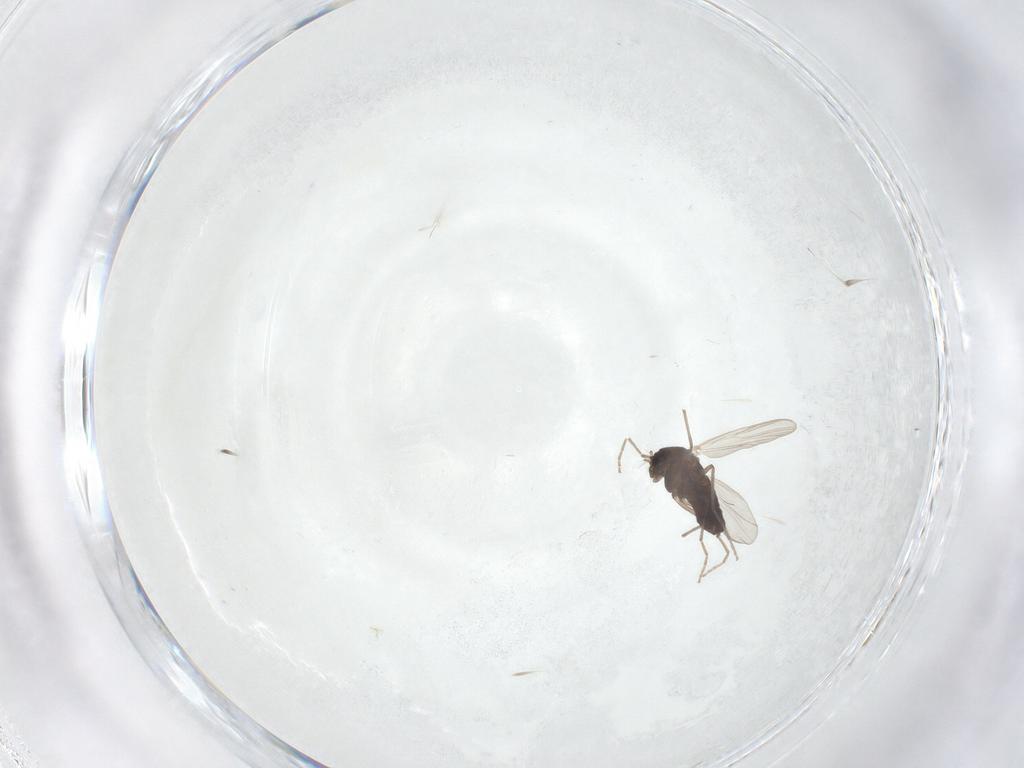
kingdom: Animalia
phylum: Arthropoda
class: Insecta
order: Diptera
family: Chironomidae
